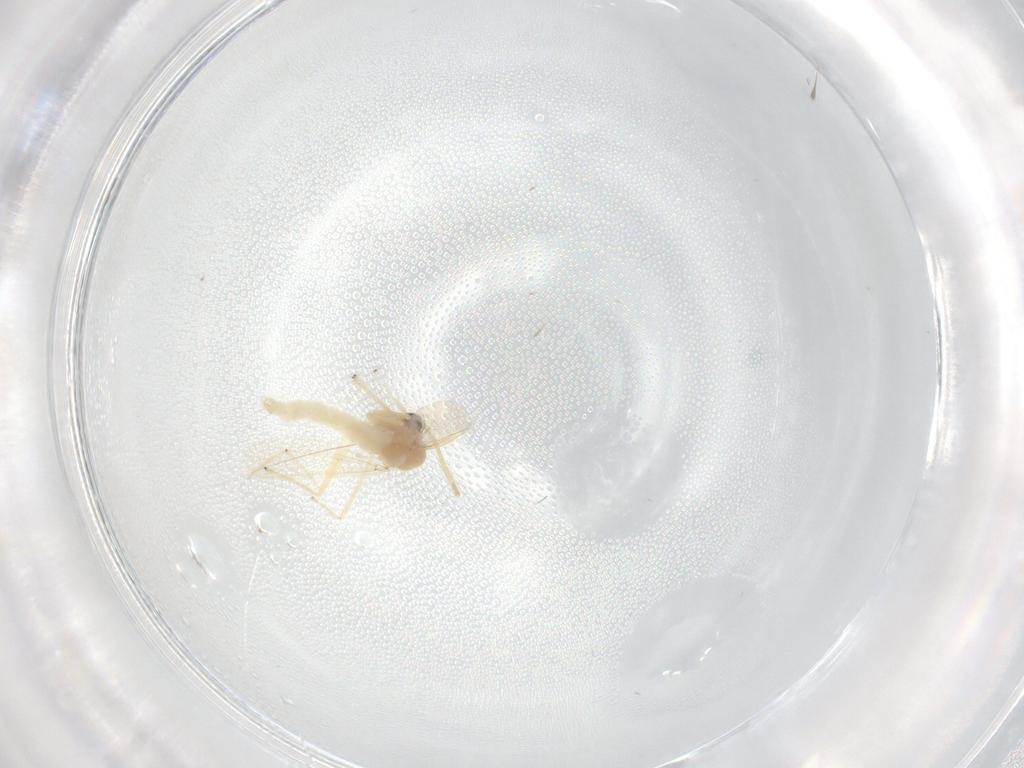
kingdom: Animalia
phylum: Arthropoda
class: Insecta
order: Diptera
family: Chironomidae
